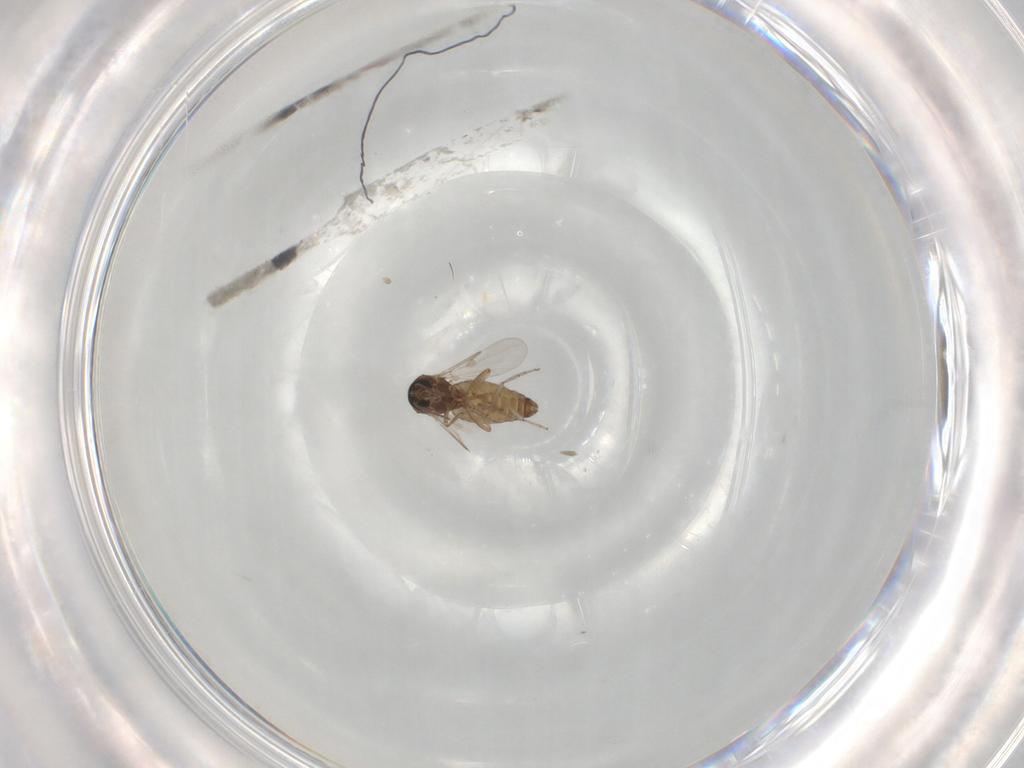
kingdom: Animalia
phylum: Arthropoda
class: Insecta
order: Diptera
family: Ceratopogonidae
